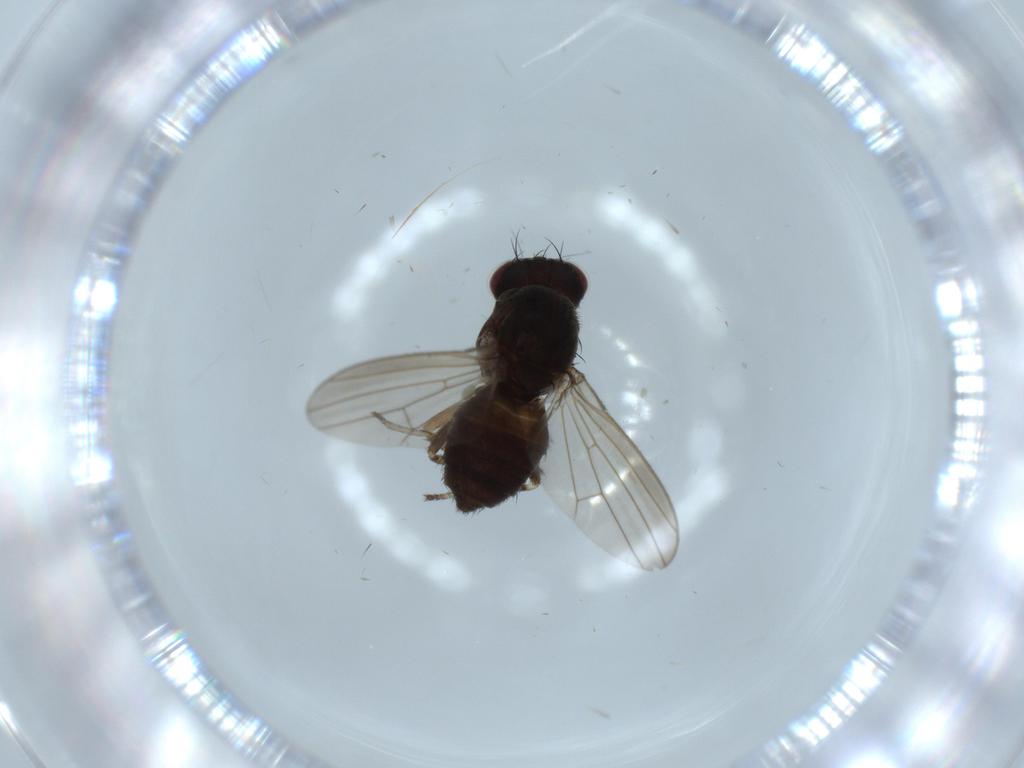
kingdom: Animalia
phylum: Arthropoda
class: Insecta
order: Diptera
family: Heleomyzidae
